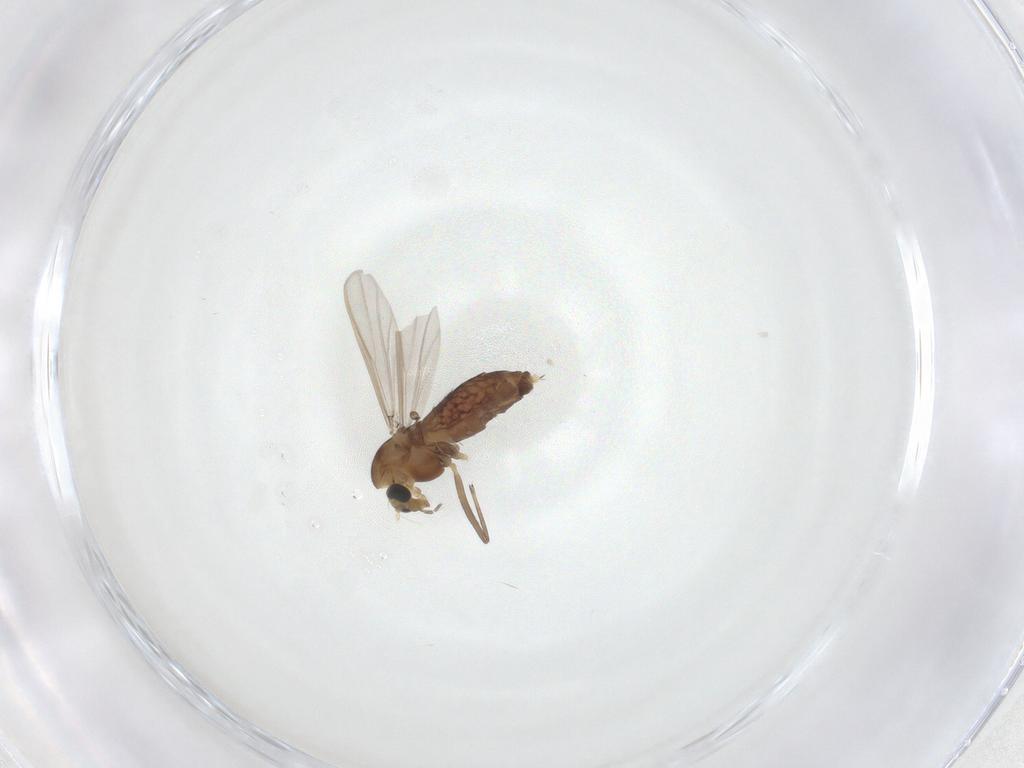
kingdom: Animalia
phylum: Arthropoda
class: Insecta
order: Diptera
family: Chironomidae
